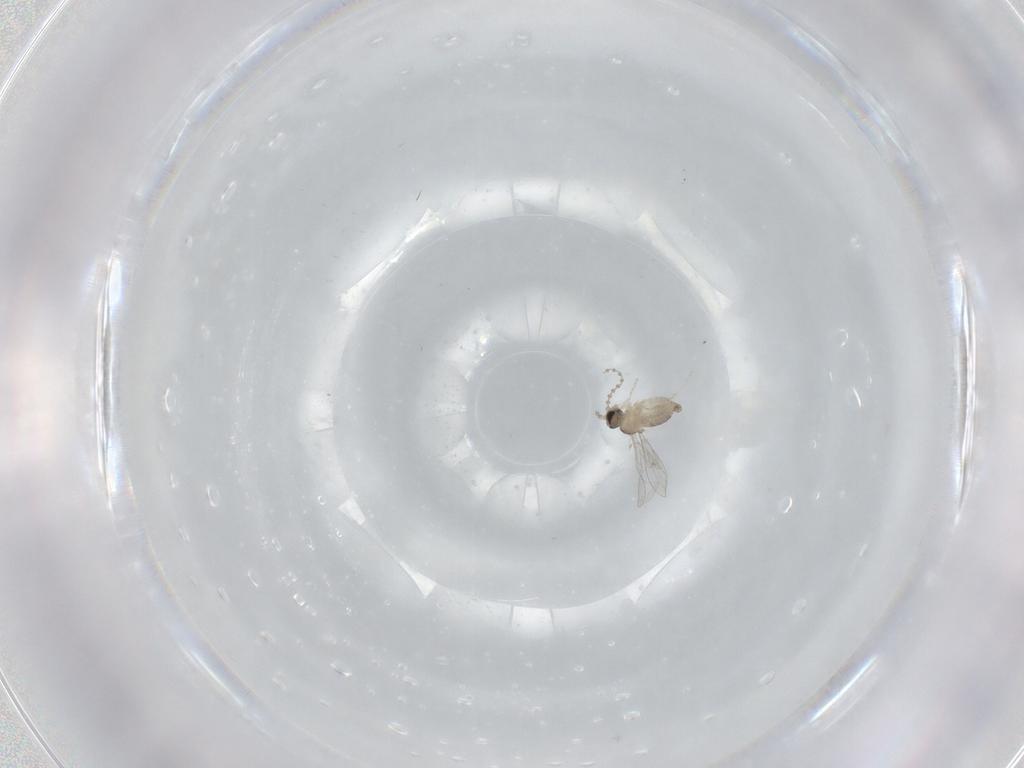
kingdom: Animalia
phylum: Arthropoda
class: Insecta
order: Diptera
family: Cecidomyiidae
